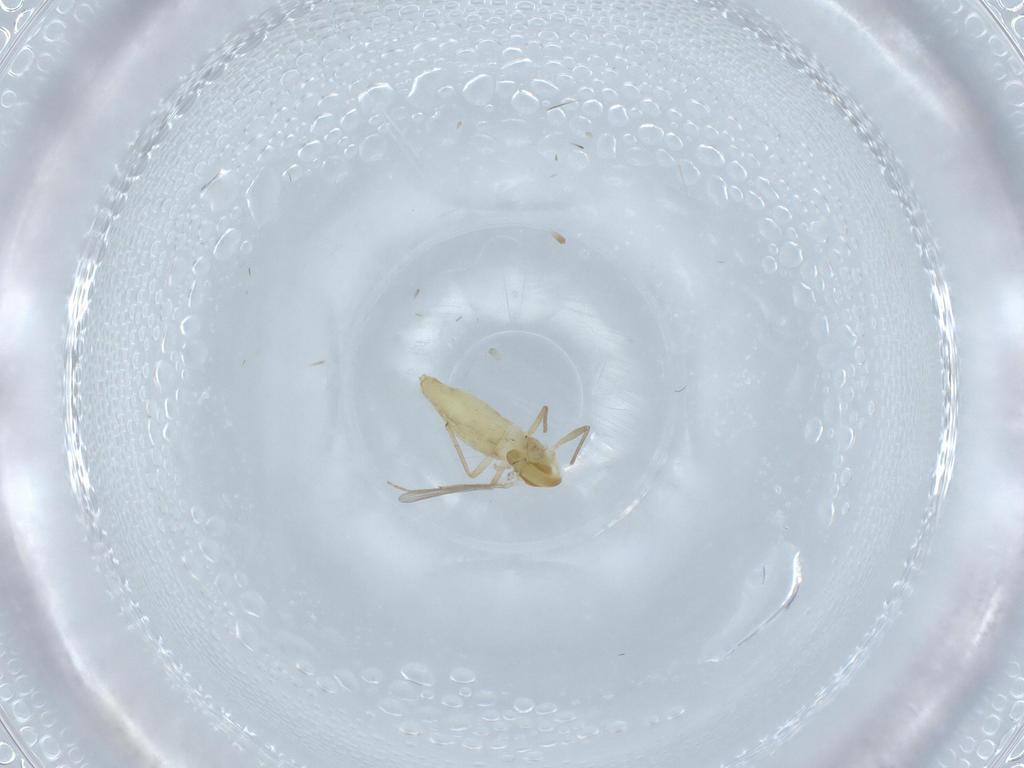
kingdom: Animalia
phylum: Arthropoda
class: Insecta
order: Diptera
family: Chironomidae
